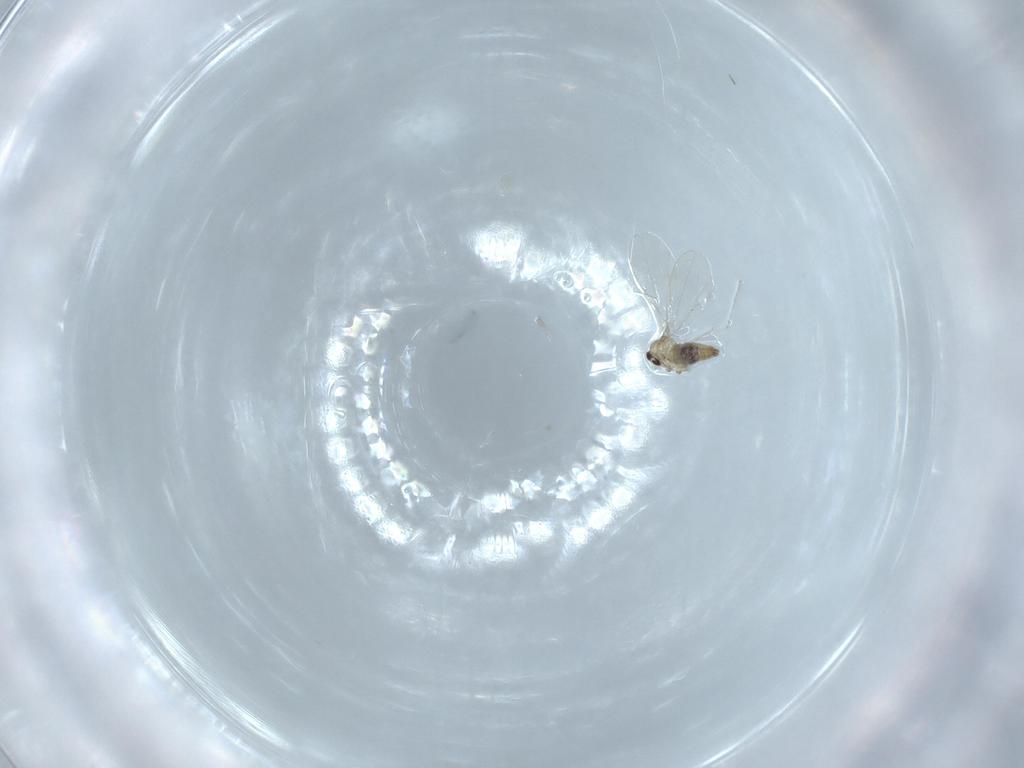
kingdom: Animalia
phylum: Arthropoda
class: Insecta
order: Diptera
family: Cecidomyiidae
